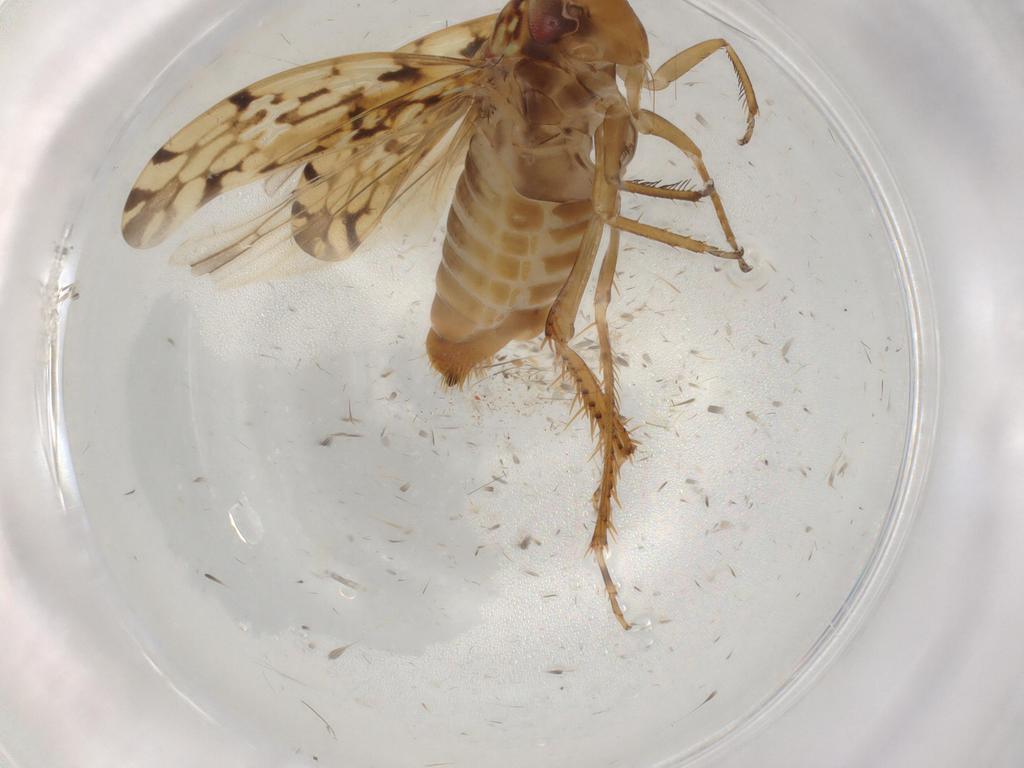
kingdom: Animalia
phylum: Arthropoda
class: Insecta
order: Hemiptera
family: Cicadellidae
